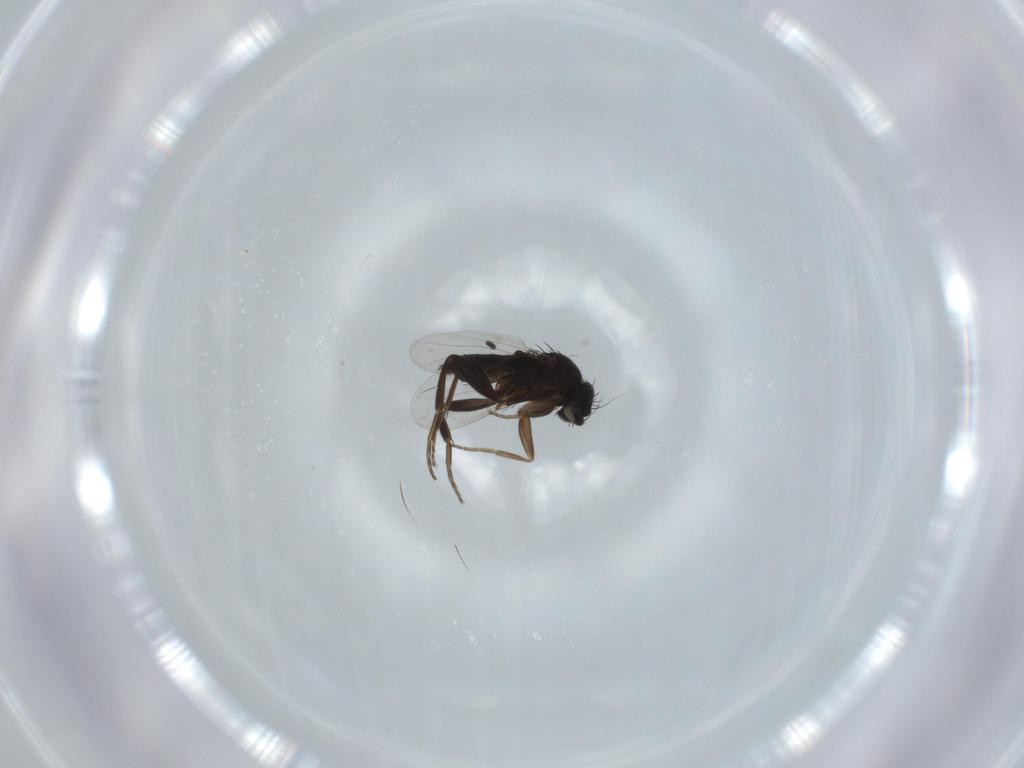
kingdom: Animalia
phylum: Arthropoda
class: Insecta
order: Diptera
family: Phoridae
